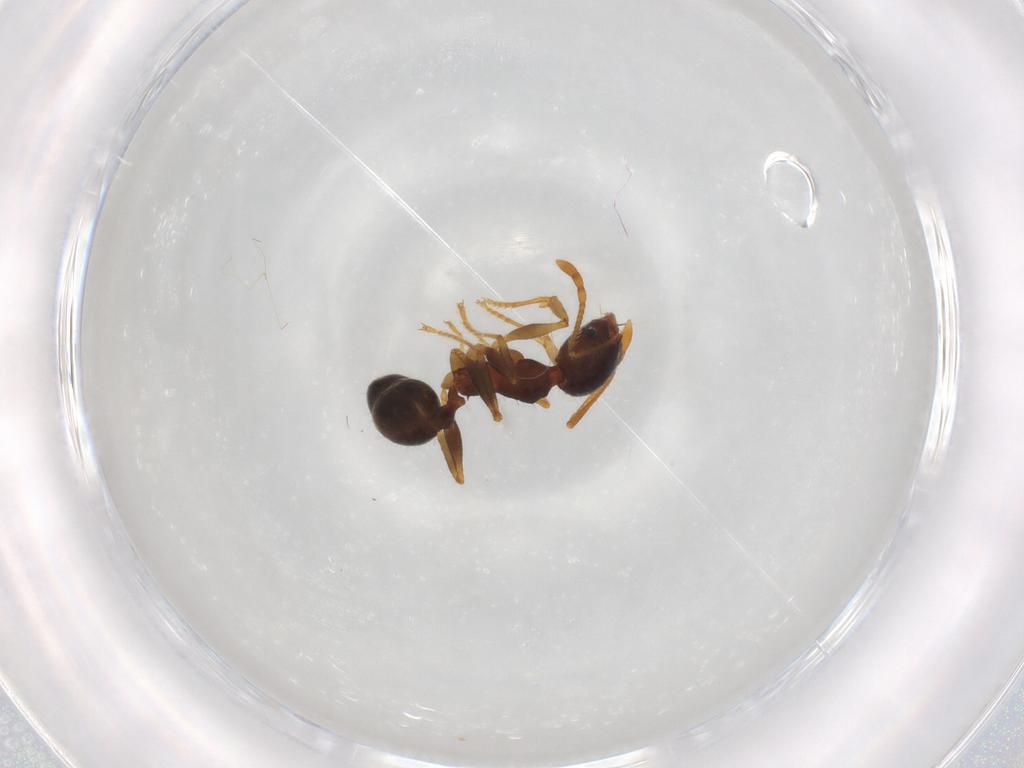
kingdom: Animalia
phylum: Arthropoda
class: Insecta
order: Hymenoptera
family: Formicidae
